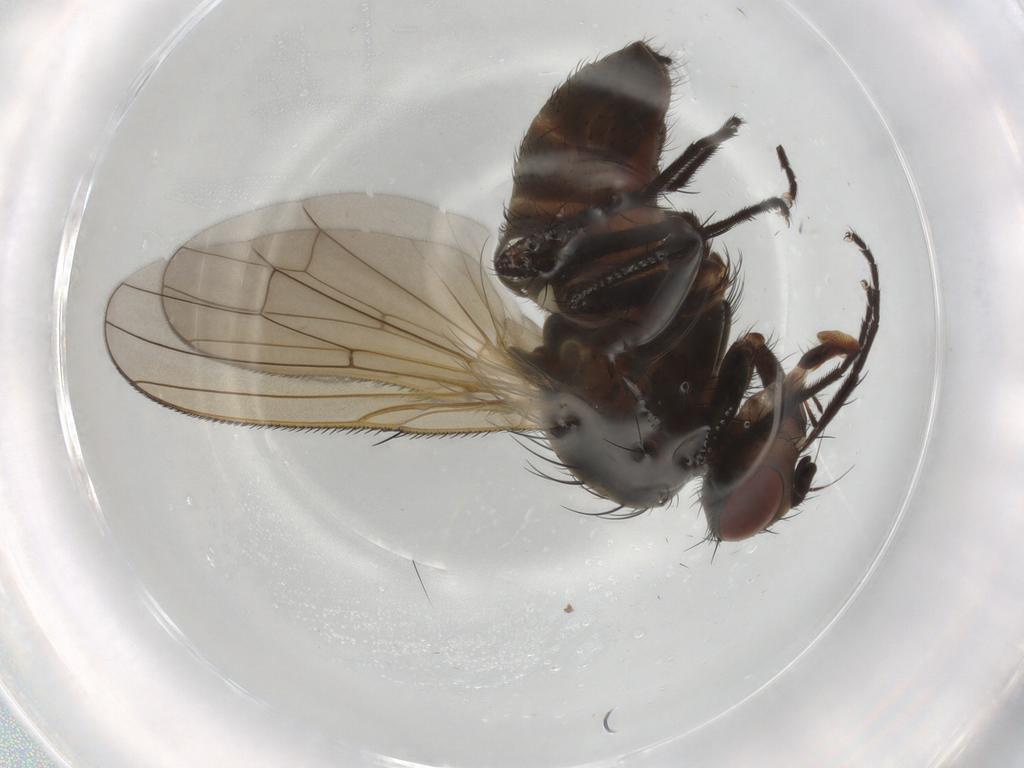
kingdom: Animalia
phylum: Arthropoda
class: Insecta
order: Diptera
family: Anthomyiidae
